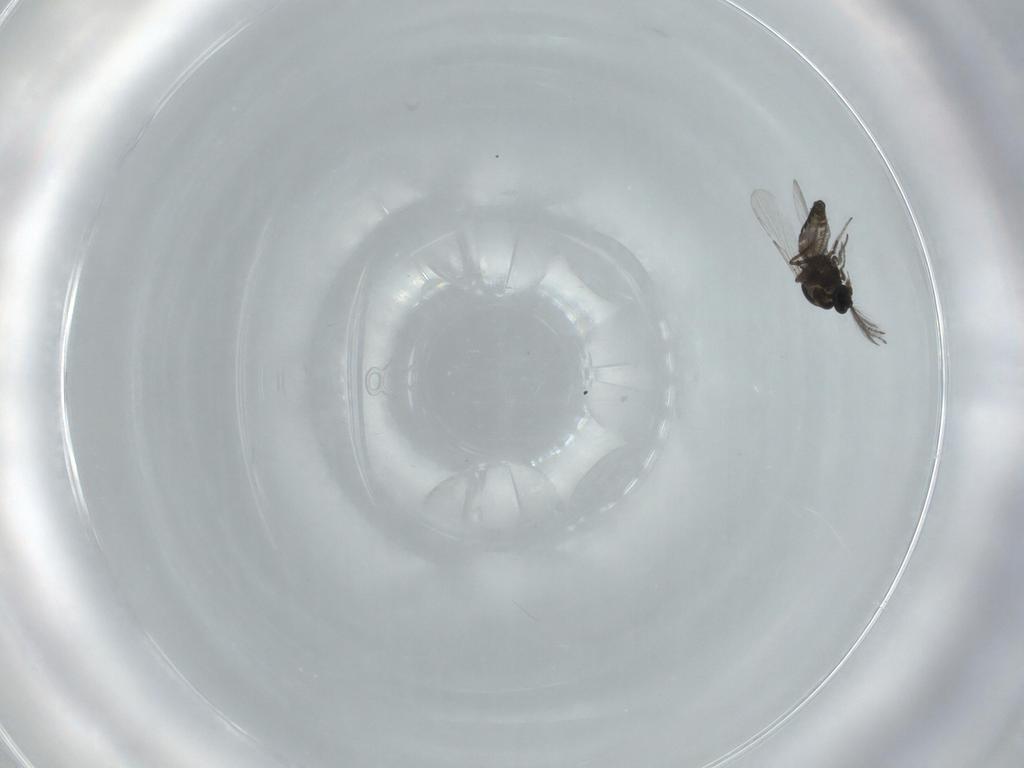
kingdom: Animalia
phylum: Arthropoda
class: Insecta
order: Diptera
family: Ceratopogonidae
